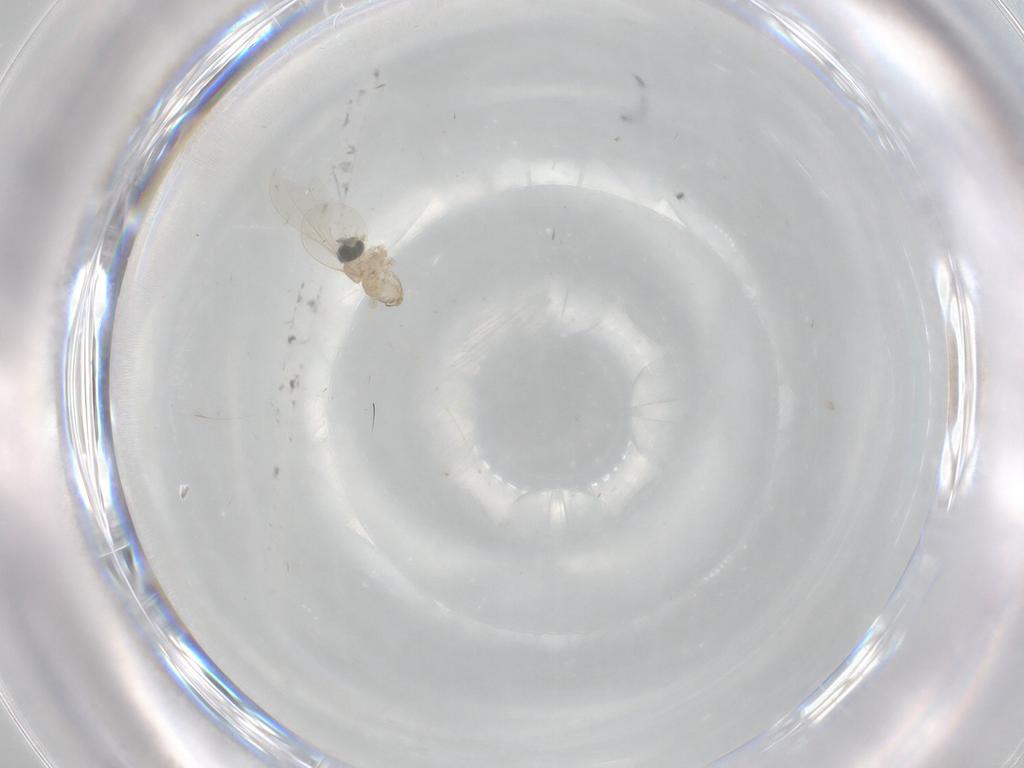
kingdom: Animalia
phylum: Arthropoda
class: Insecta
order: Diptera
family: Cecidomyiidae
